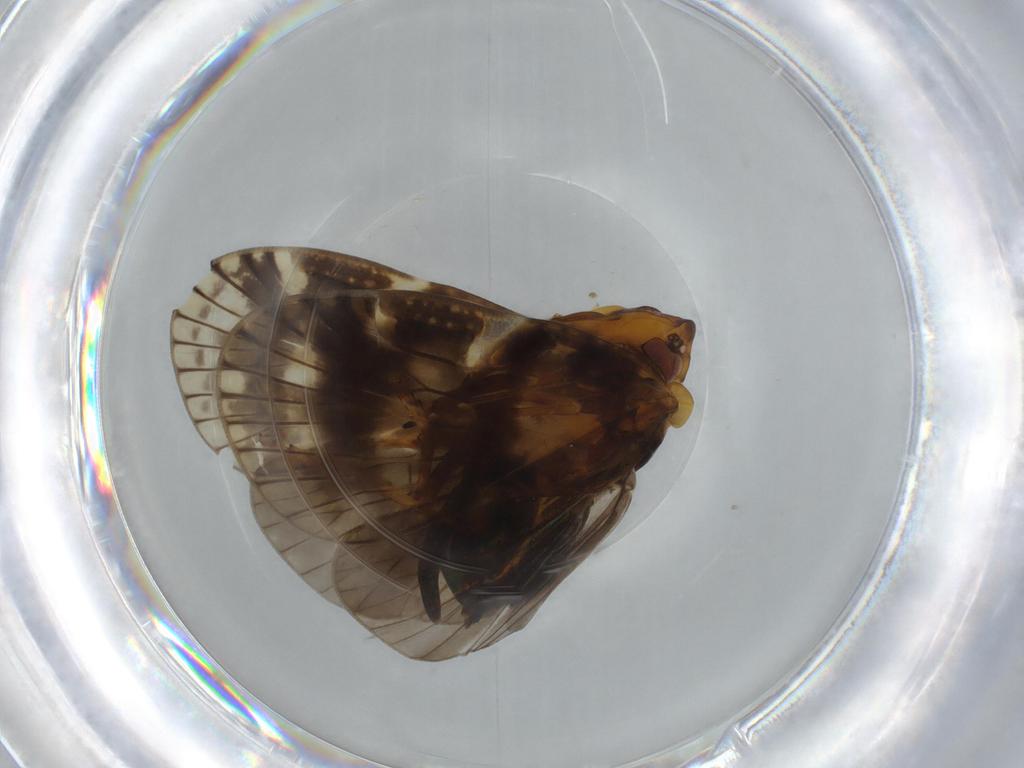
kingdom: Animalia
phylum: Arthropoda
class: Insecta
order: Hemiptera
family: Cixiidae
